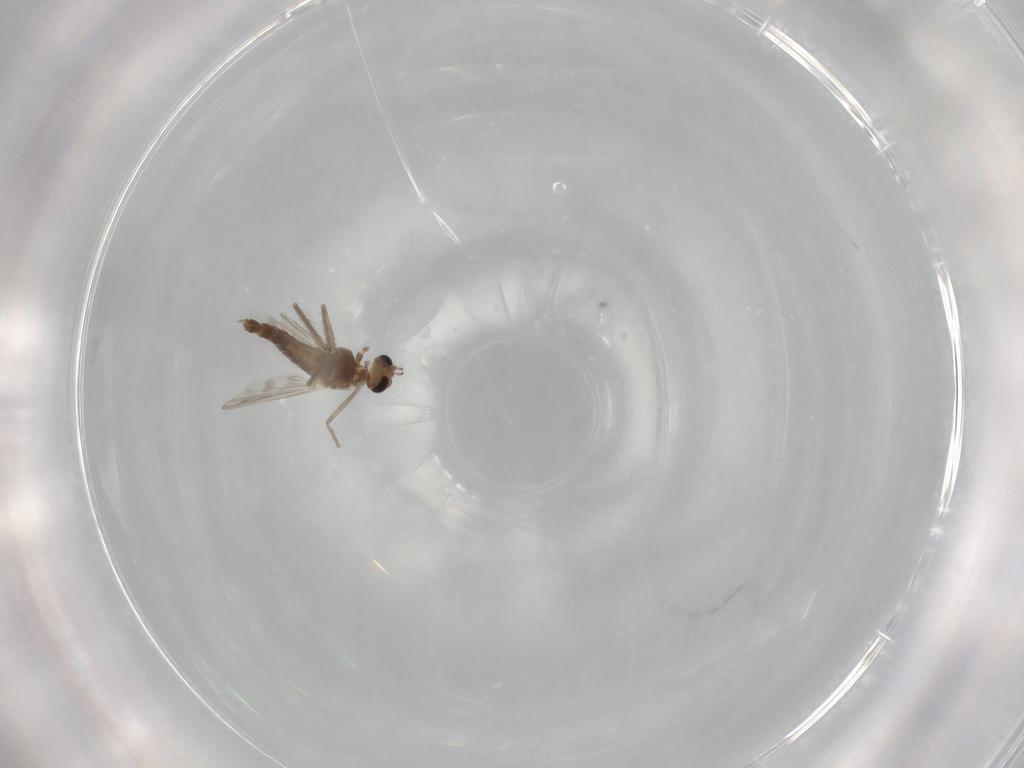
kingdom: Animalia
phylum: Arthropoda
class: Insecta
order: Diptera
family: Chironomidae
